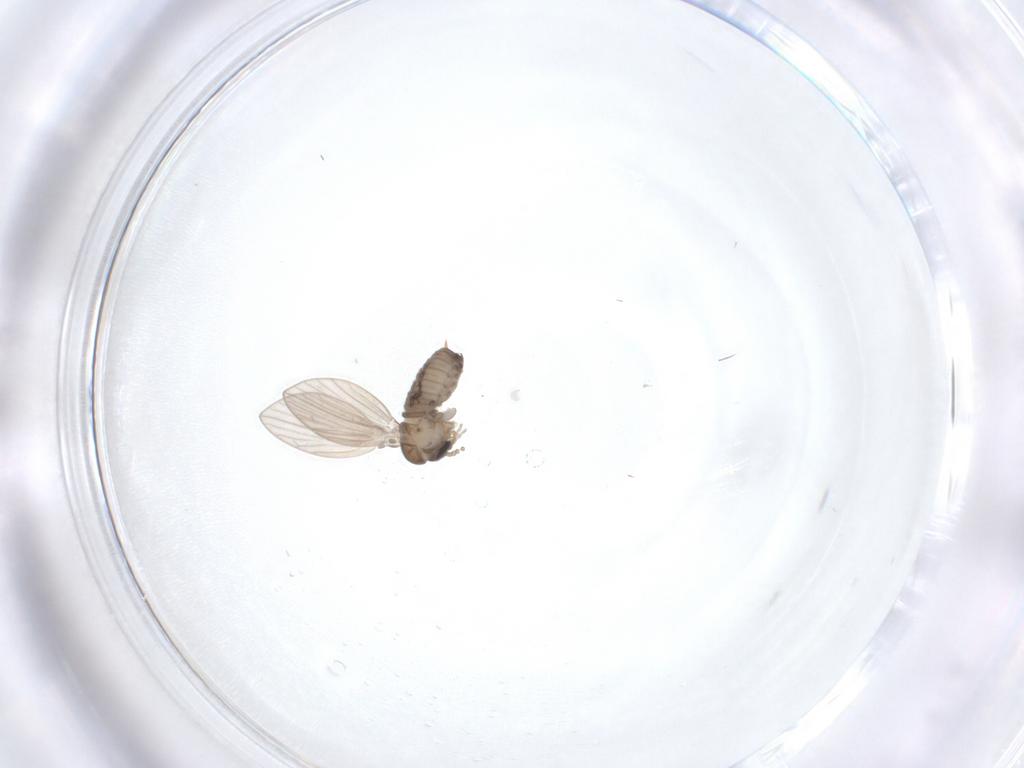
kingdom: Animalia
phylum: Arthropoda
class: Insecta
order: Diptera
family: Psychodidae
